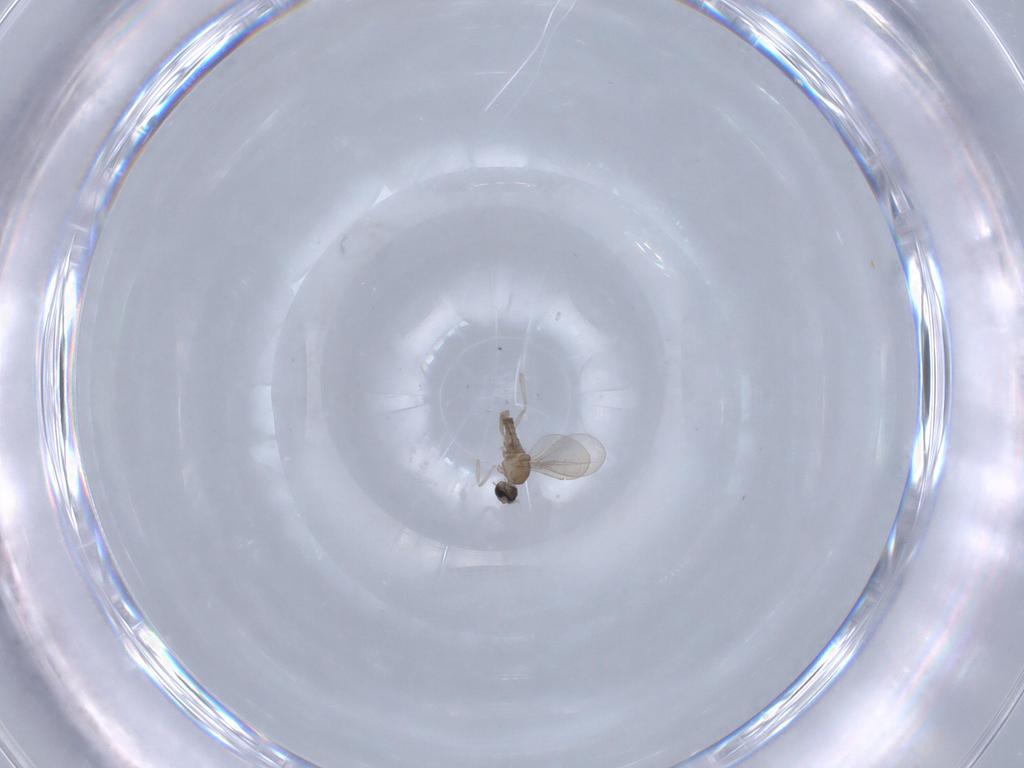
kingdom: Animalia
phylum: Arthropoda
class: Insecta
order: Diptera
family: Cecidomyiidae
